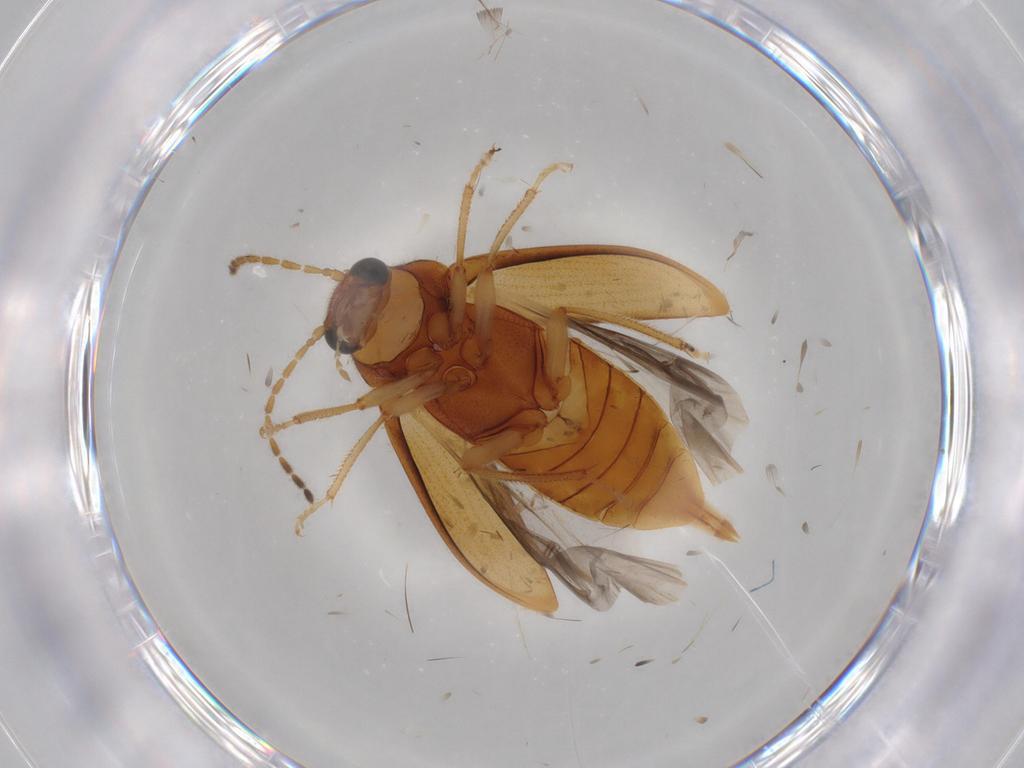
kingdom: Animalia
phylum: Arthropoda
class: Insecta
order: Coleoptera
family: Ptilodactylidae
